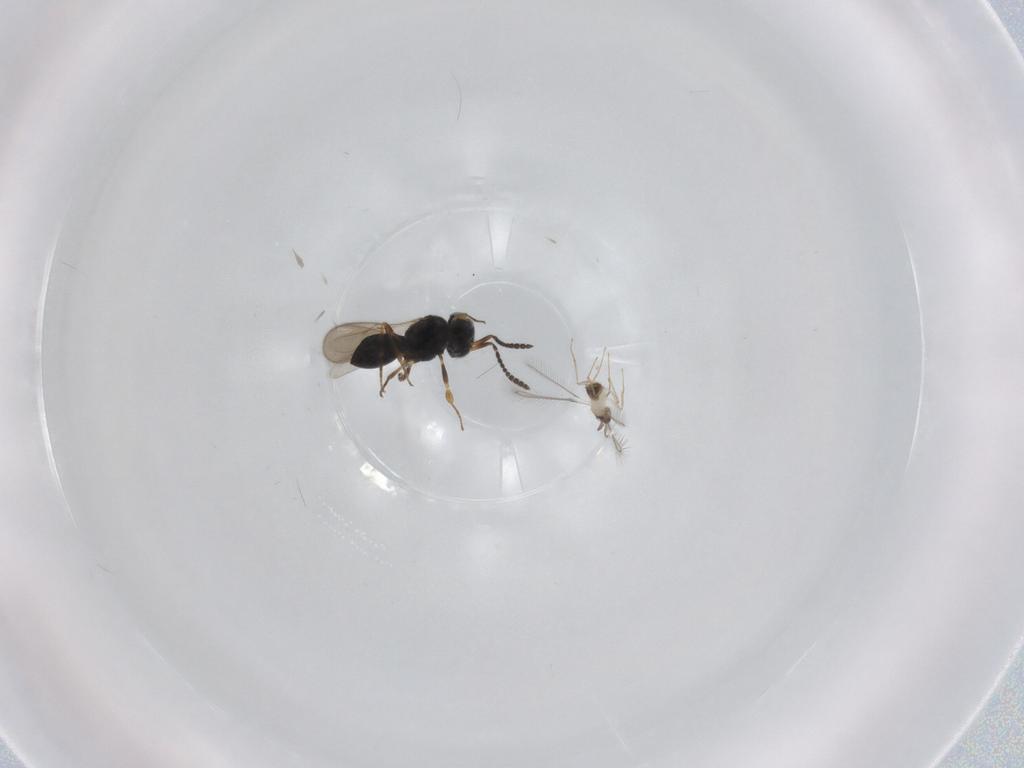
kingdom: Animalia
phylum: Arthropoda
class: Insecta
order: Hymenoptera
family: Scelionidae
